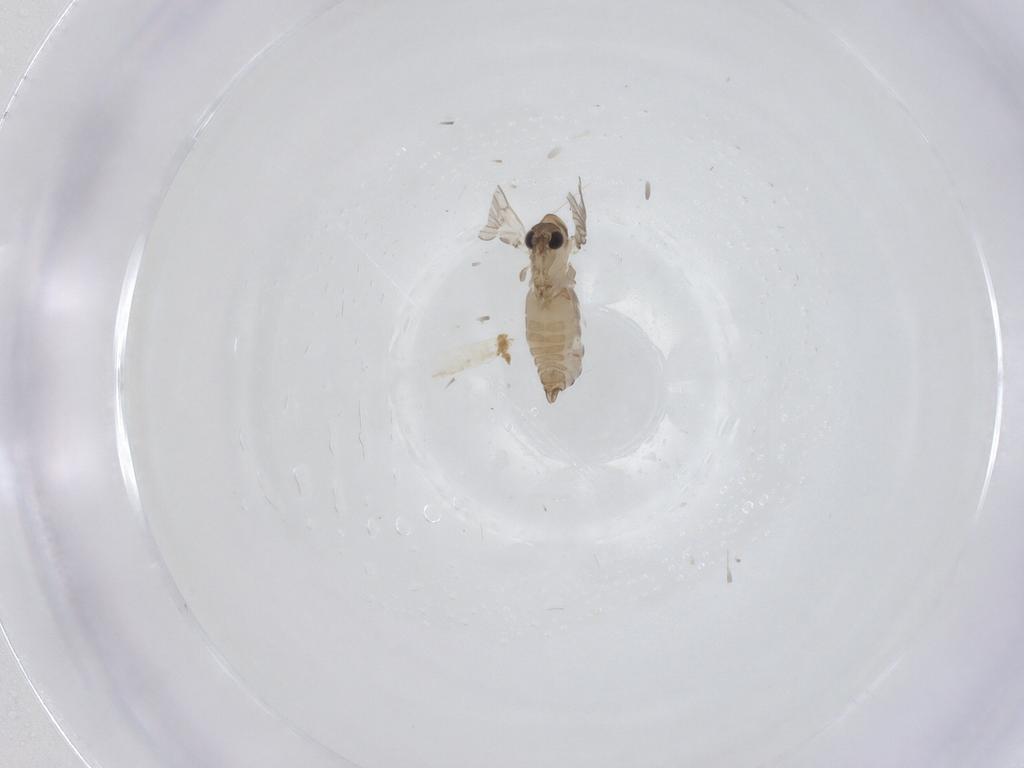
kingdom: Animalia
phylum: Arthropoda
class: Insecta
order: Diptera
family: Psychodidae
